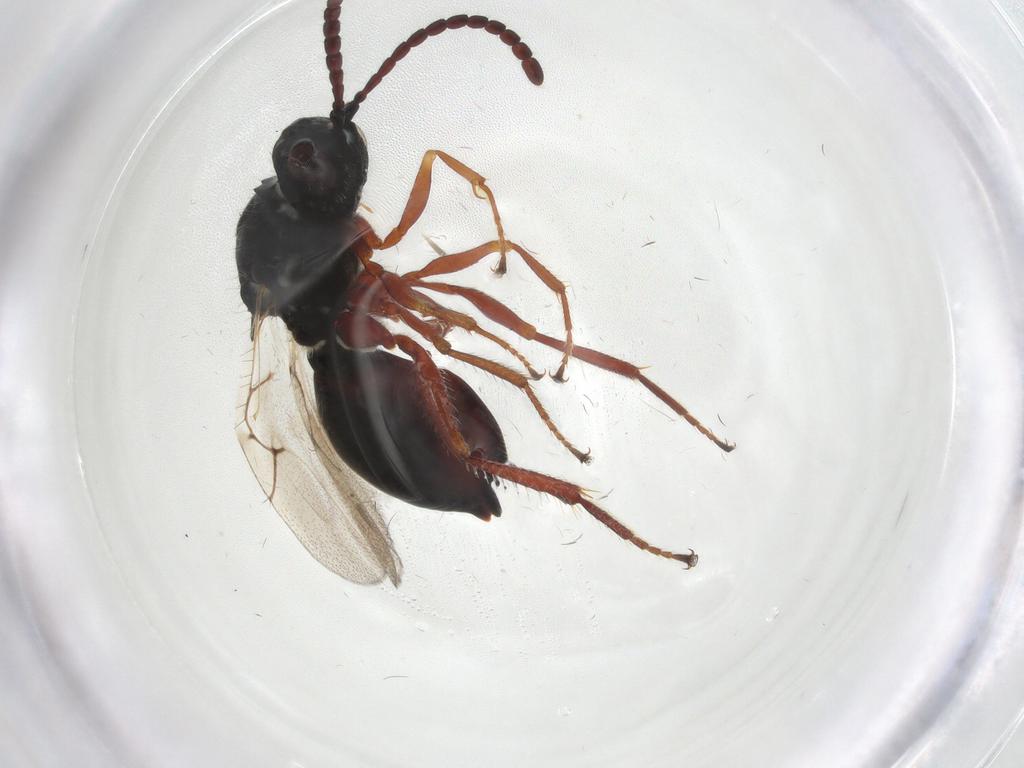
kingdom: Animalia
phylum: Arthropoda
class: Insecta
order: Hymenoptera
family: Figitidae
